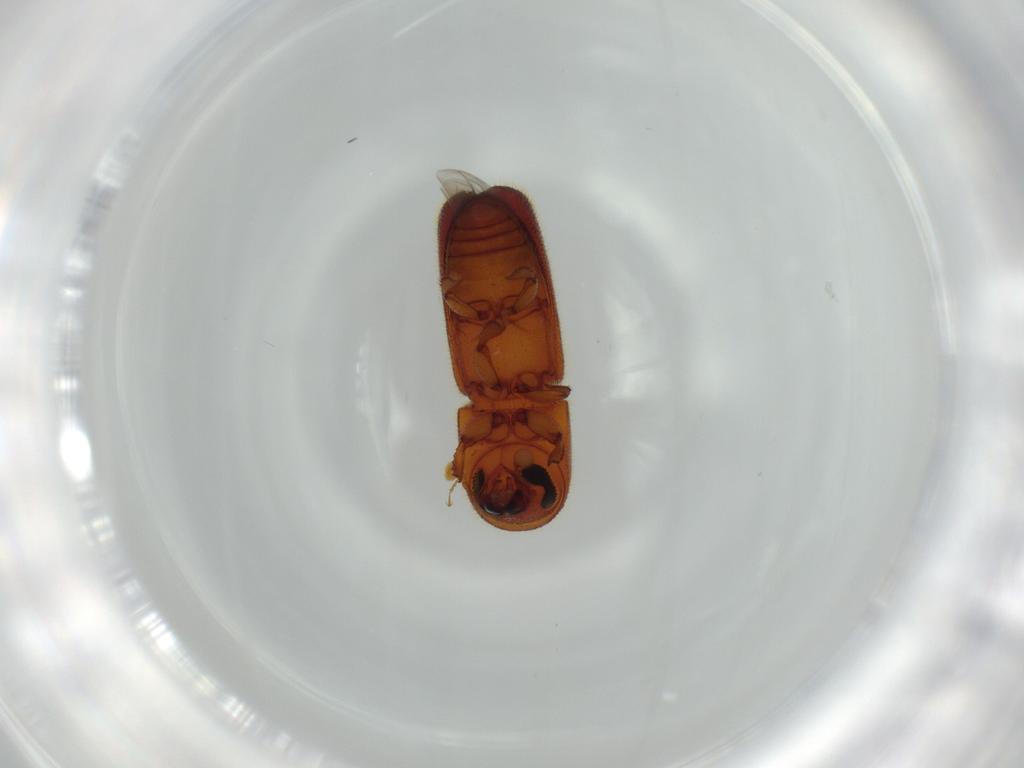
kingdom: Animalia
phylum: Arthropoda
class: Insecta
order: Coleoptera
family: Curculionidae
